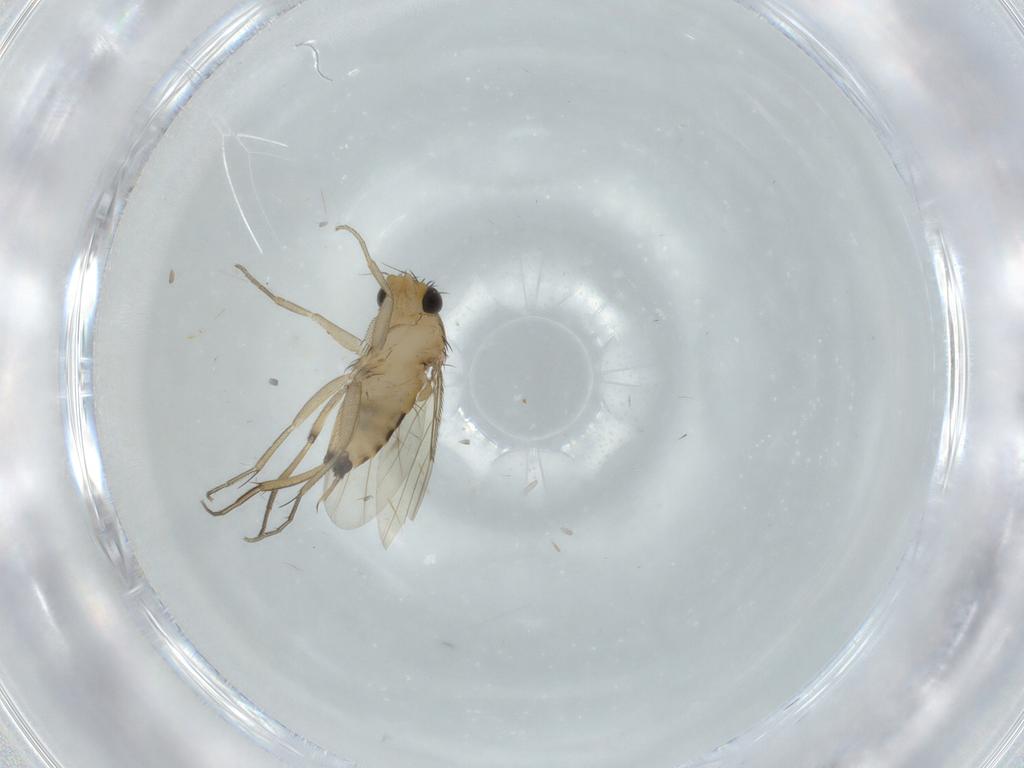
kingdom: Animalia
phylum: Arthropoda
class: Insecta
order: Diptera
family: Phoridae
